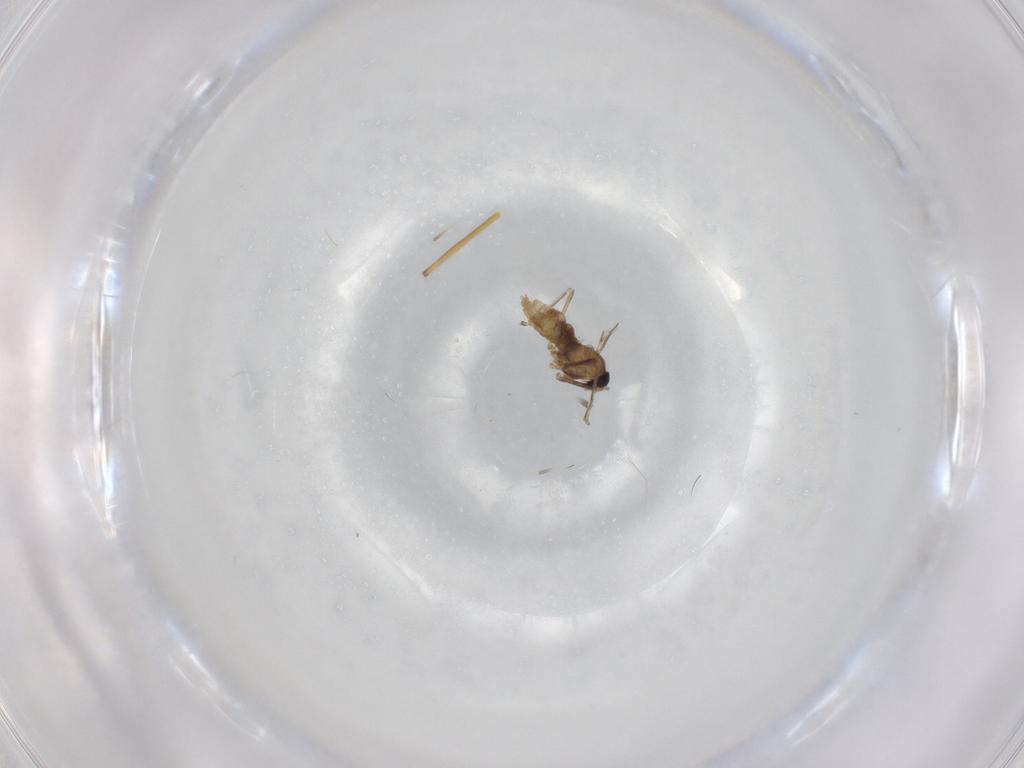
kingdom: Animalia
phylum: Arthropoda
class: Insecta
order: Diptera
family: Cecidomyiidae
